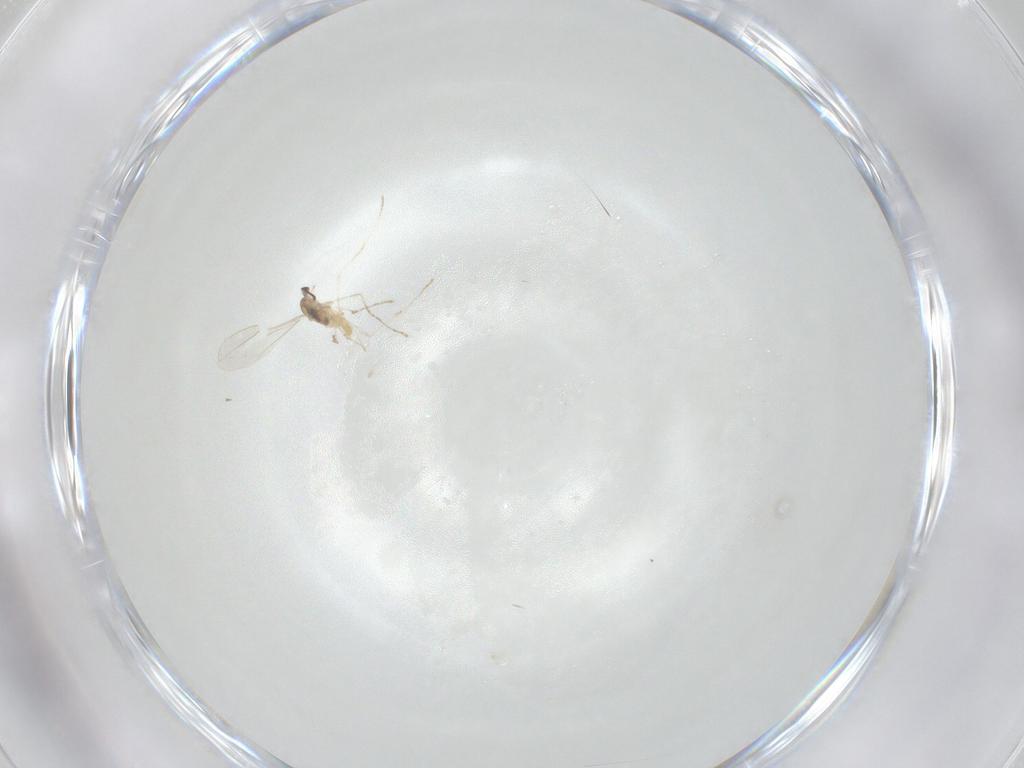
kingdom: Animalia
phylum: Arthropoda
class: Insecta
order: Diptera
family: Cecidomyiidae
